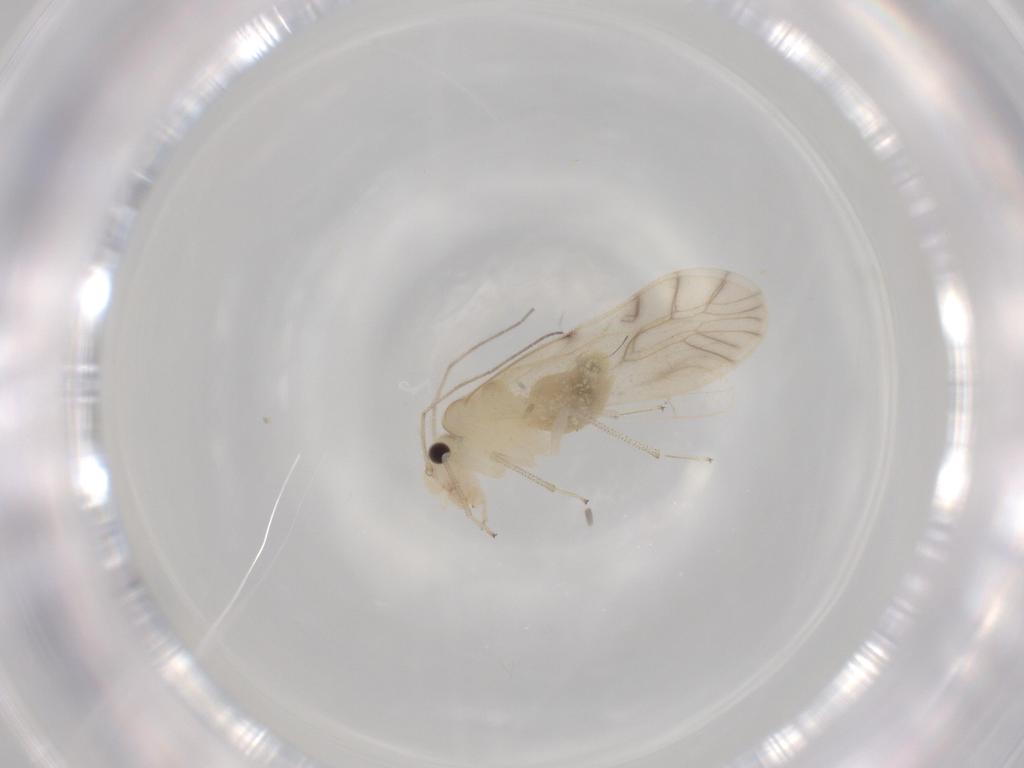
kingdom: Animalia
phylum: Arthropoda
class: Insecta
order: Psocodea
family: Caeciliusidae
